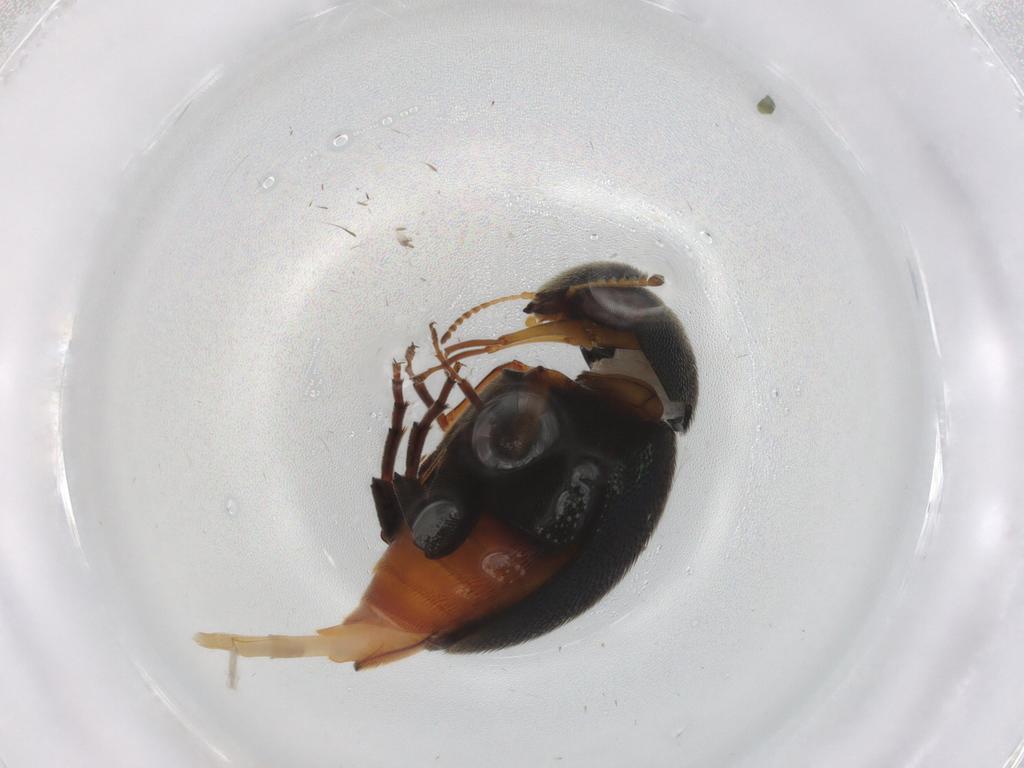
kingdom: Animalia
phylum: Arthropoda
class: Insecta
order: Coleoptera
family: Mordellidae
